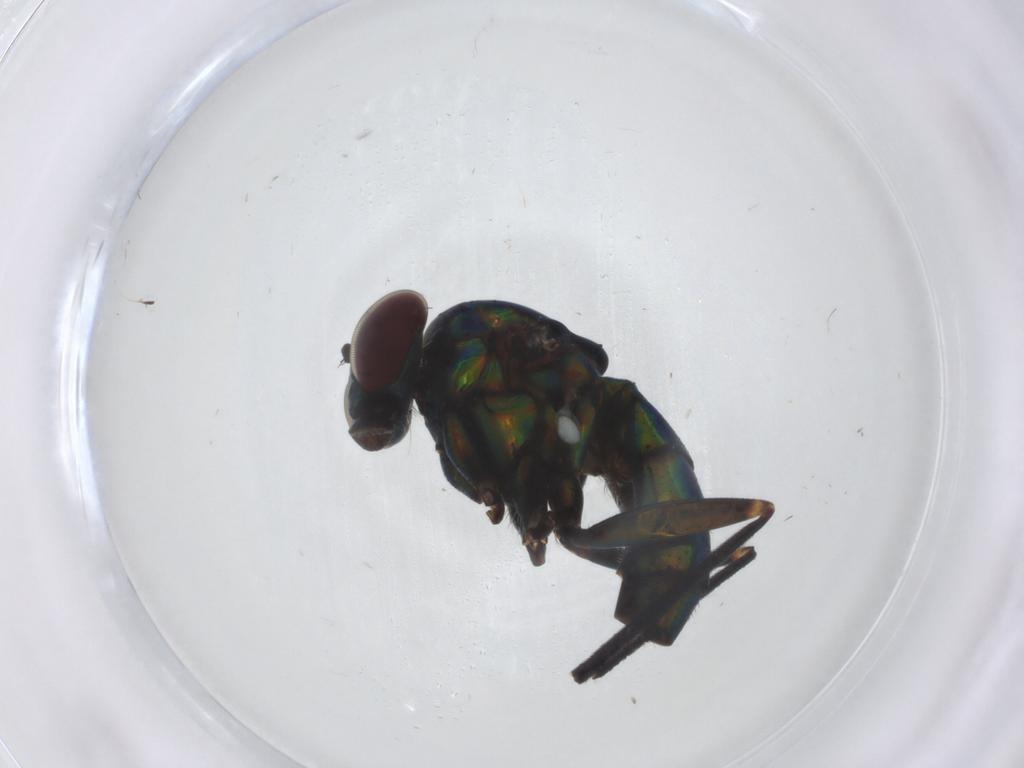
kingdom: Animalia
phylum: Arthropoda
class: Insecta
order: Diptera
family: Dolichopodidae
